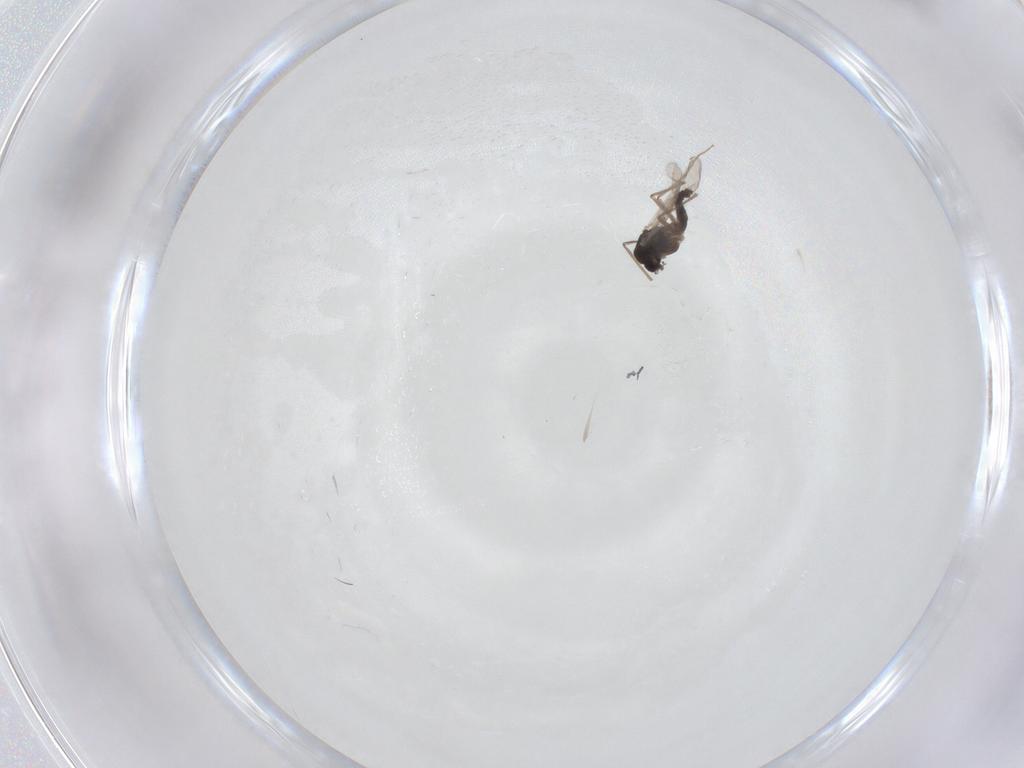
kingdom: Animalia
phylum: Arthropoda
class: Insecta
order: Diptera
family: Chironomidae
